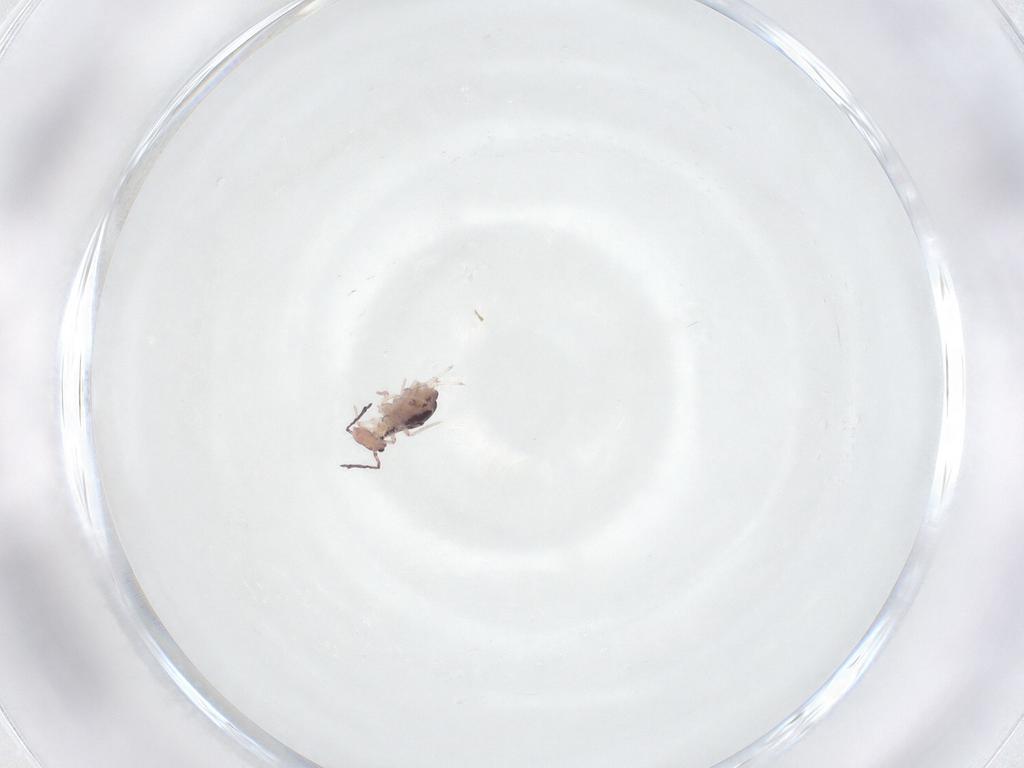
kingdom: Animalia
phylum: Arthropoda
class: Collembola
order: Symphypleona
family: Dicyrtomidae
